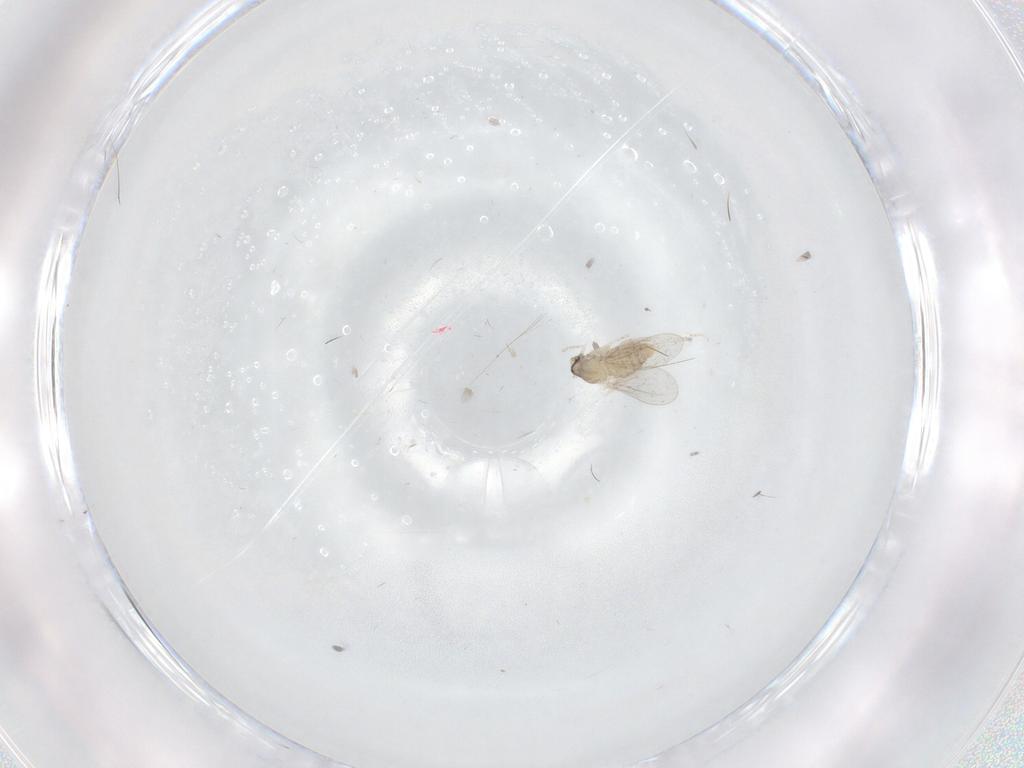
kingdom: Animalia
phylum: Arthropoda
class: Insecta
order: Diptera
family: Cecidomyiidae
